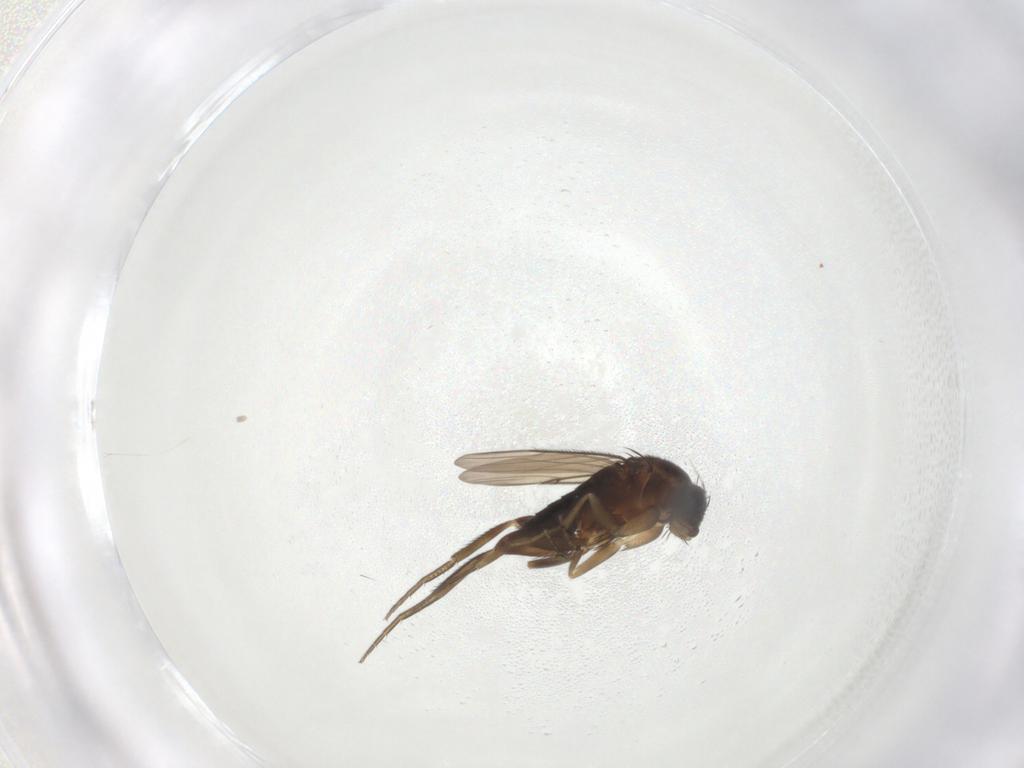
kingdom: Animalia
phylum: Arthropoda
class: Insecta
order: Diptera
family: Phoridae
